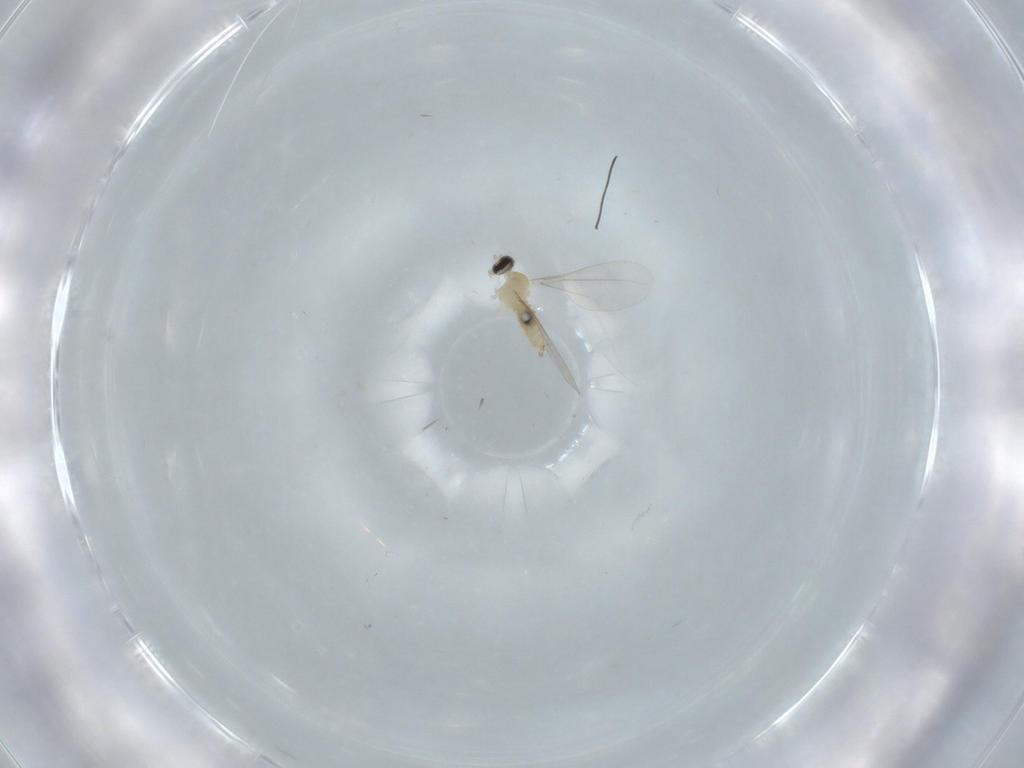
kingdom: Animalia
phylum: Arthropoda
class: Insecta
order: Diptera
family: Cecidomyiidae
